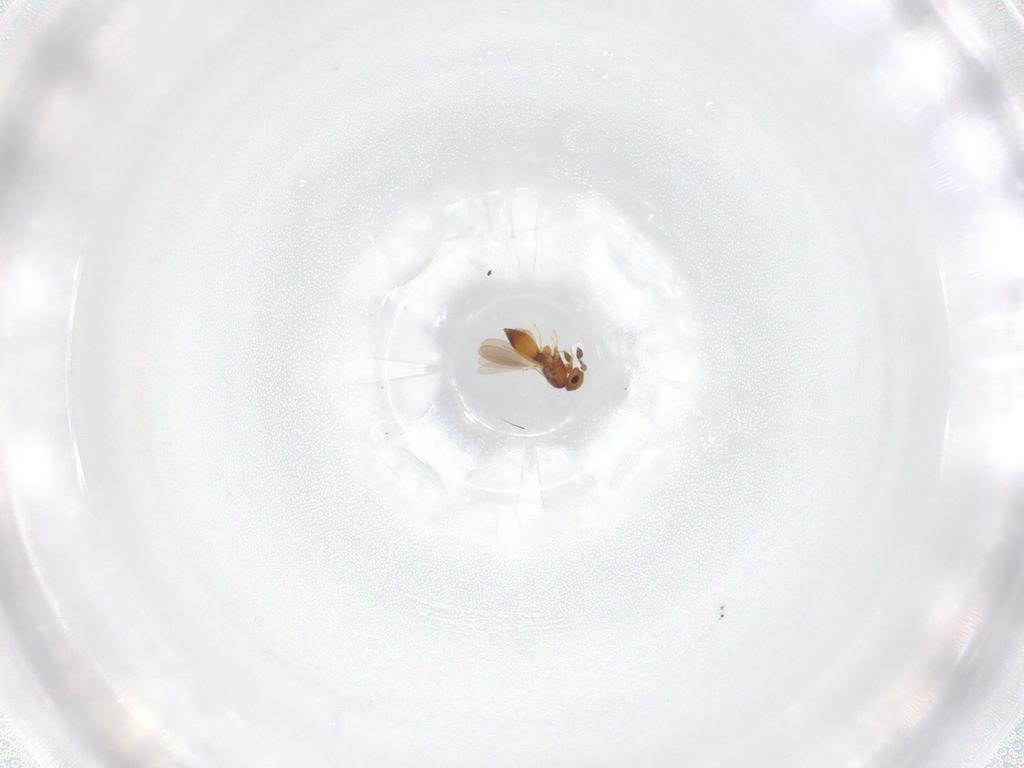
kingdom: Animalia
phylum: Arthropoda
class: Insecta
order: Hymenoptera
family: Platygastridae
